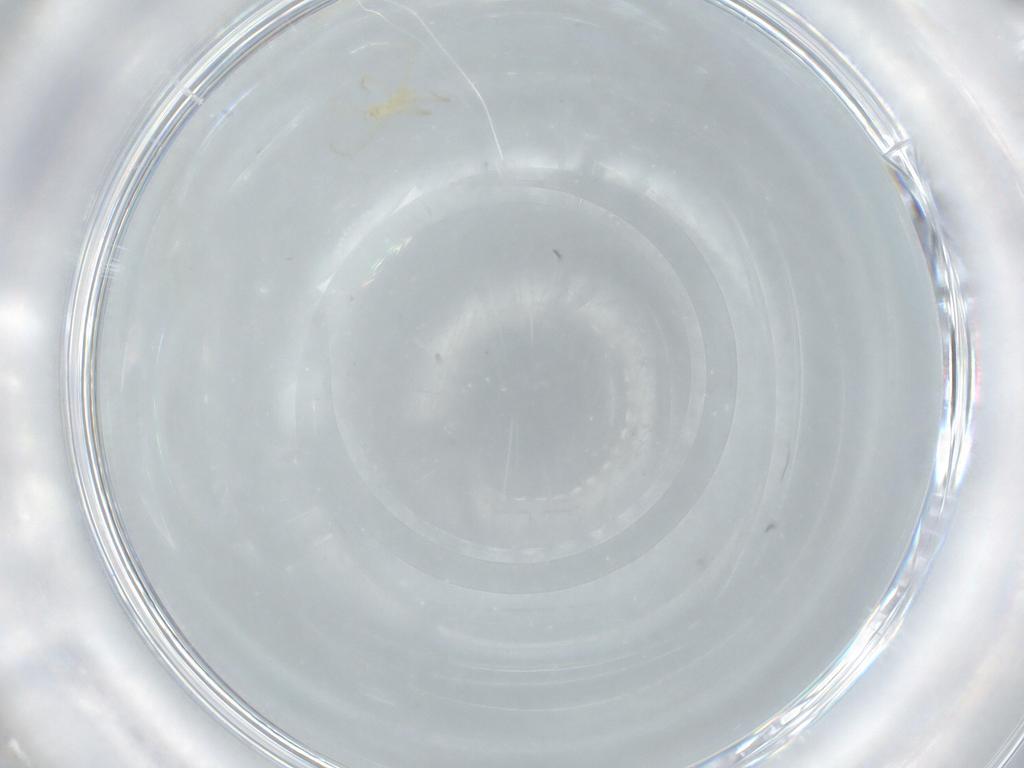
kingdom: Animalia
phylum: Arthropoda
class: Arachnida
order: Trombidiformes
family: Erythraeidae
